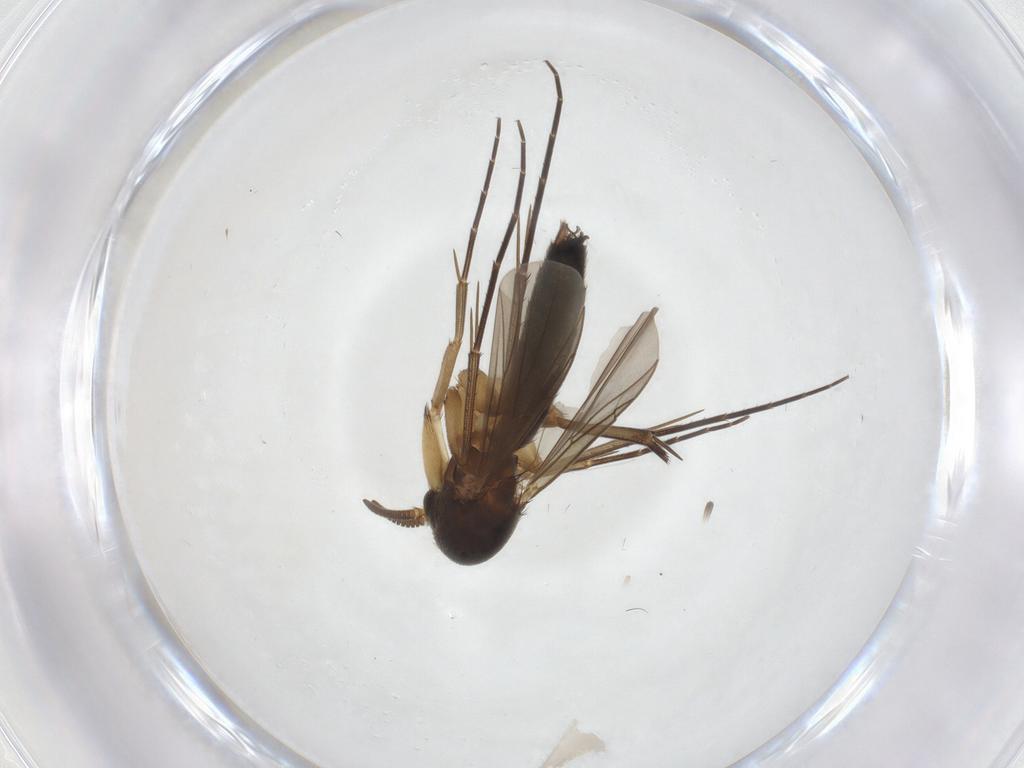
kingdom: Animalia
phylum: Arthropoda
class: Insecta
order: Diptera
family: Mycetophilidae
